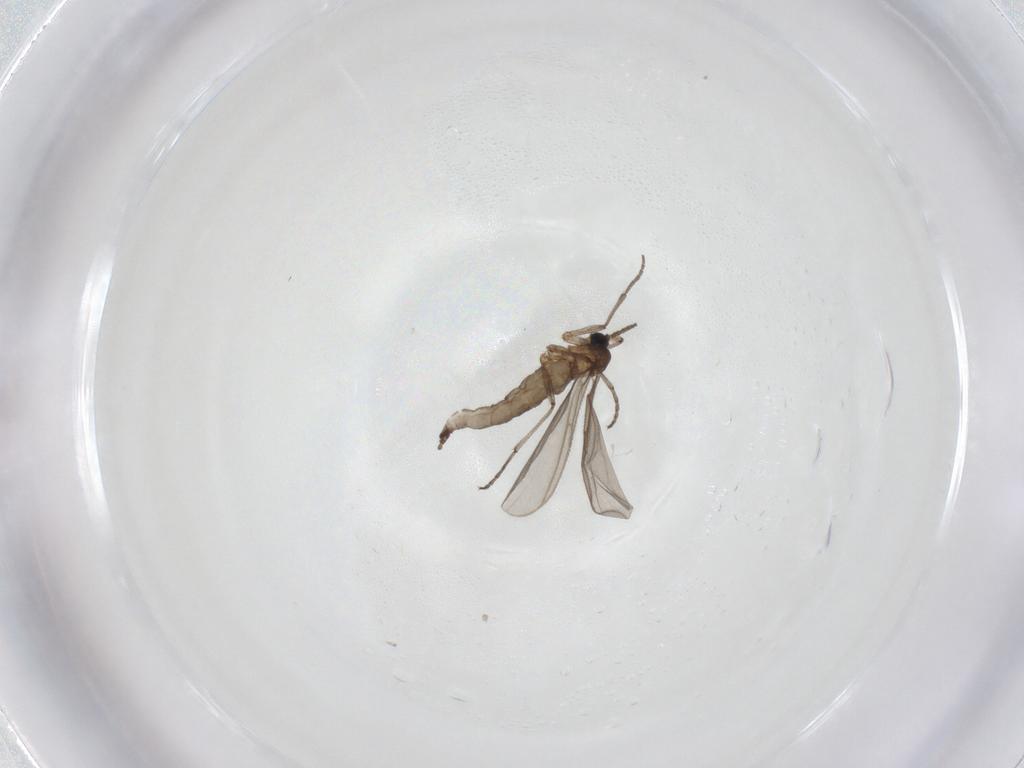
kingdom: Animalia
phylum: Arthropoda
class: Insecta
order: Diptera
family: Sciaridae
